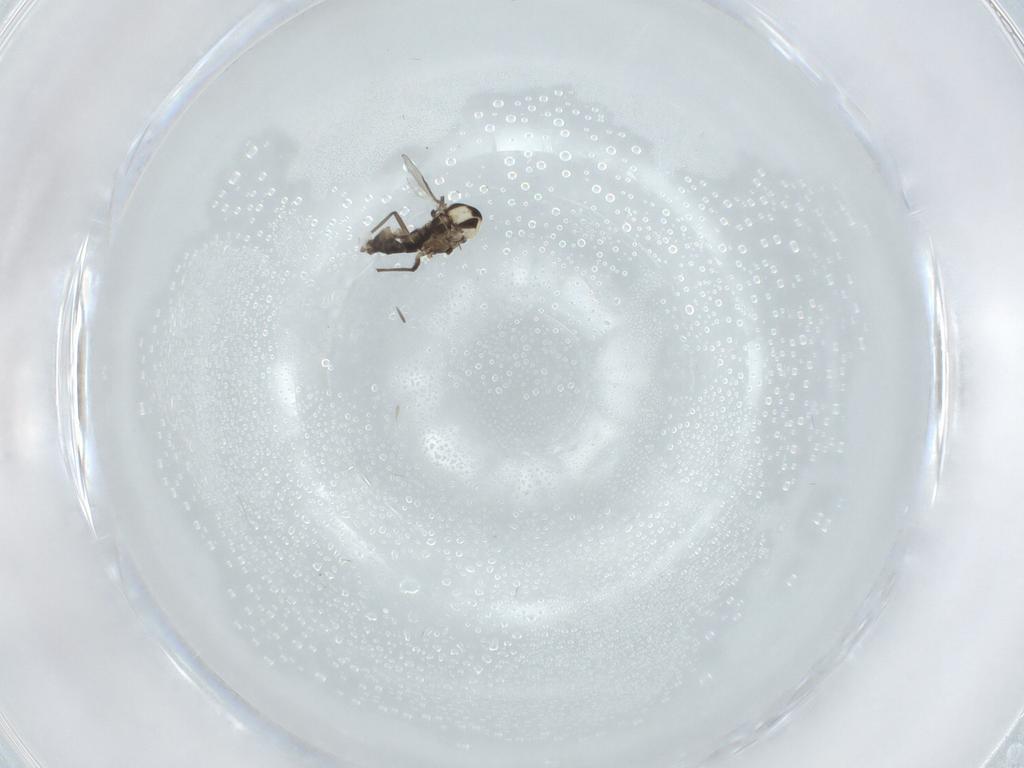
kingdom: Animalia
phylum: Arthropoda
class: Insecta
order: Diptera
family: Chironomidae
